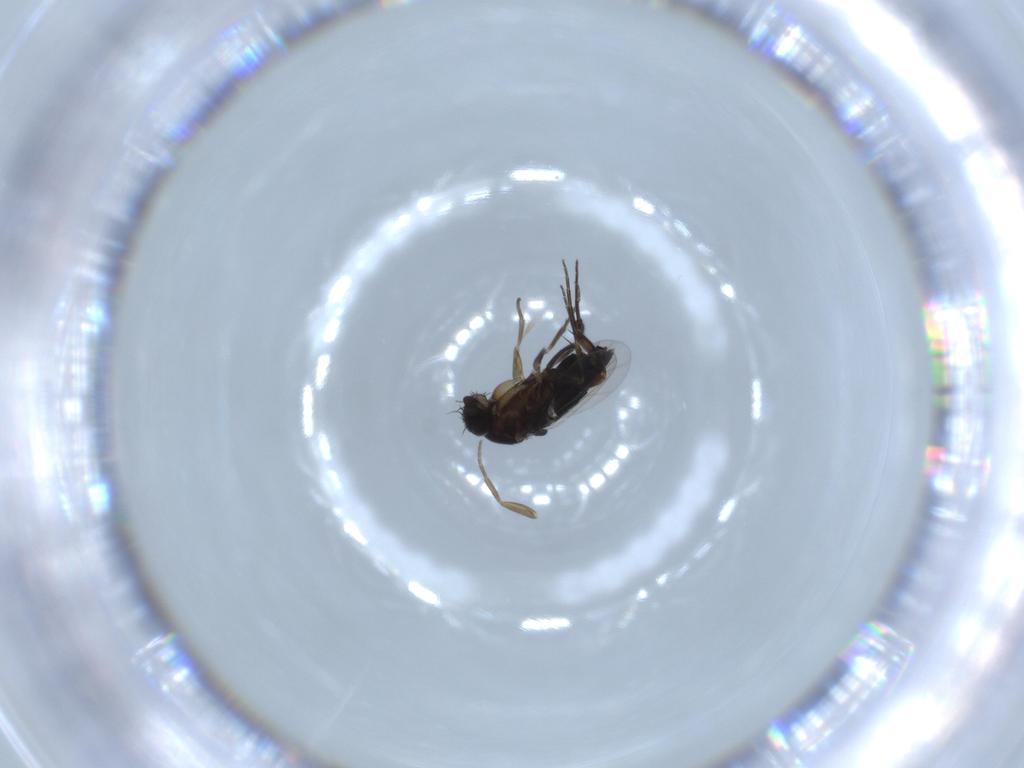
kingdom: Animalia
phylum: Arthropoda
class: Insecta
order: Diptera
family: Phoridae
